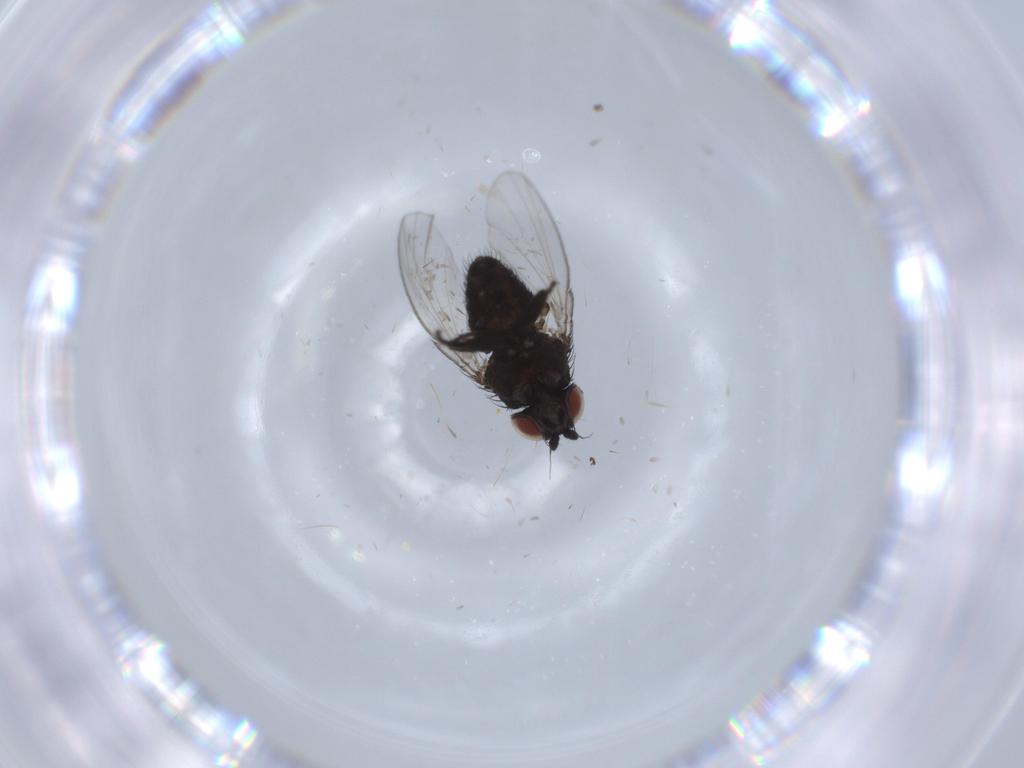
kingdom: Animalia
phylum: Arthropoda
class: Insecta
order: Diptera
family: Milichiidae
